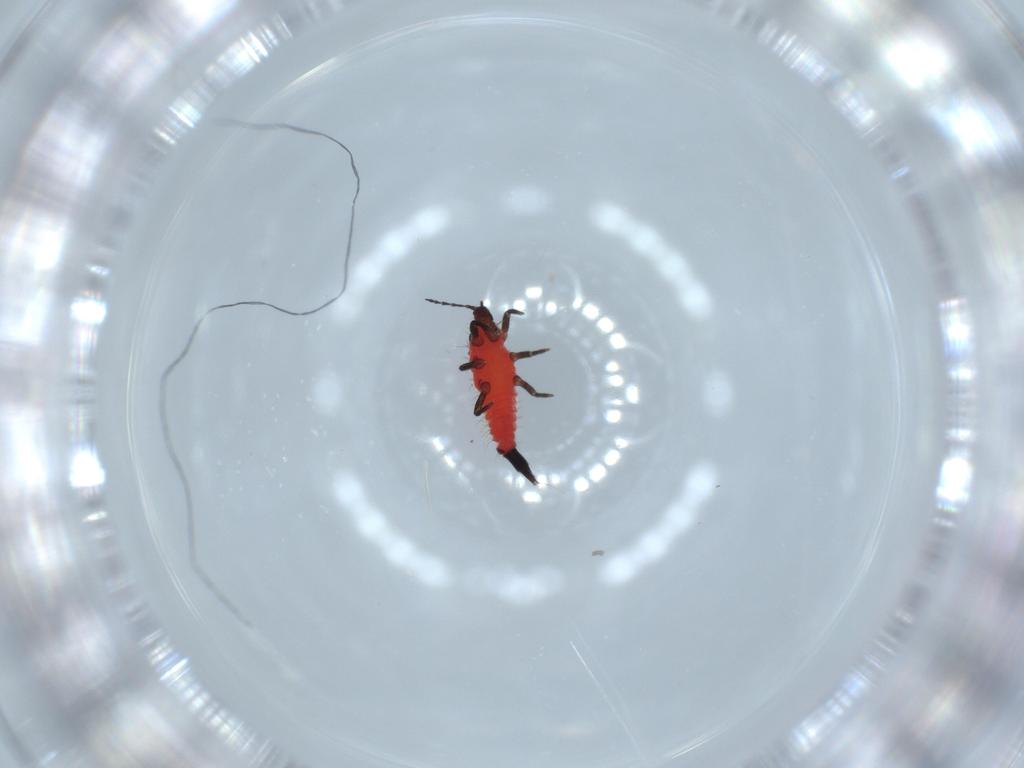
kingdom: Animalia
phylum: Arthropoda
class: Insecta
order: Thysanoptera
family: Phlaeothripidae
